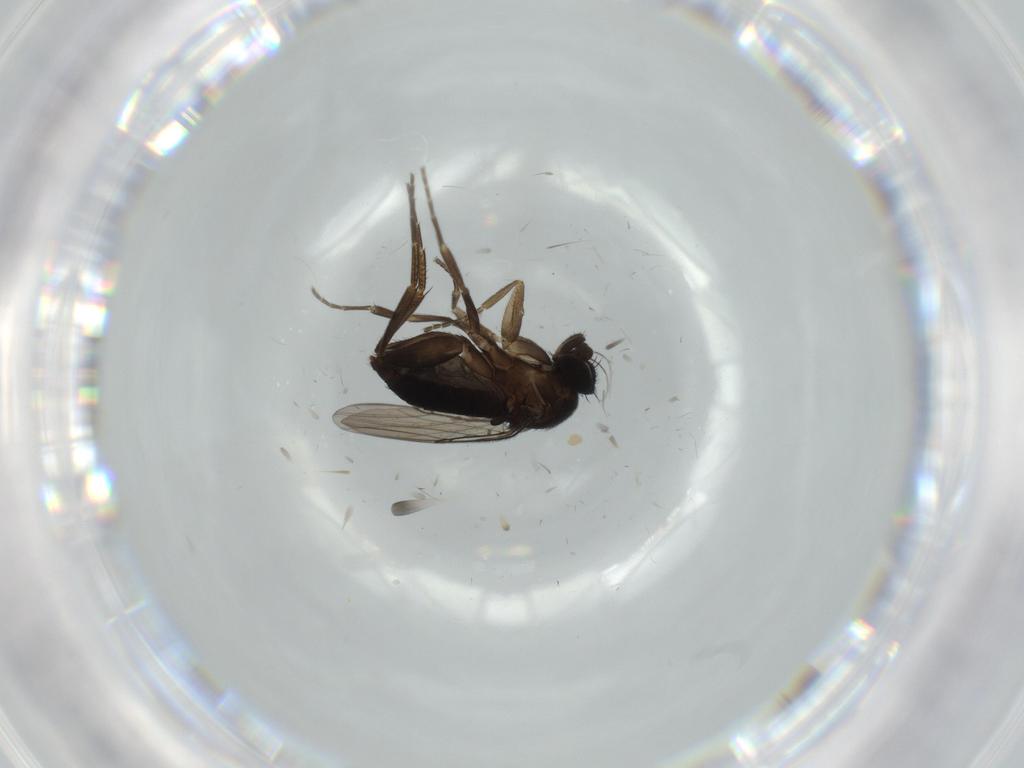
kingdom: Animalia
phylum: Arthropoda
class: Insecta
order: Diptera
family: Phoridae
